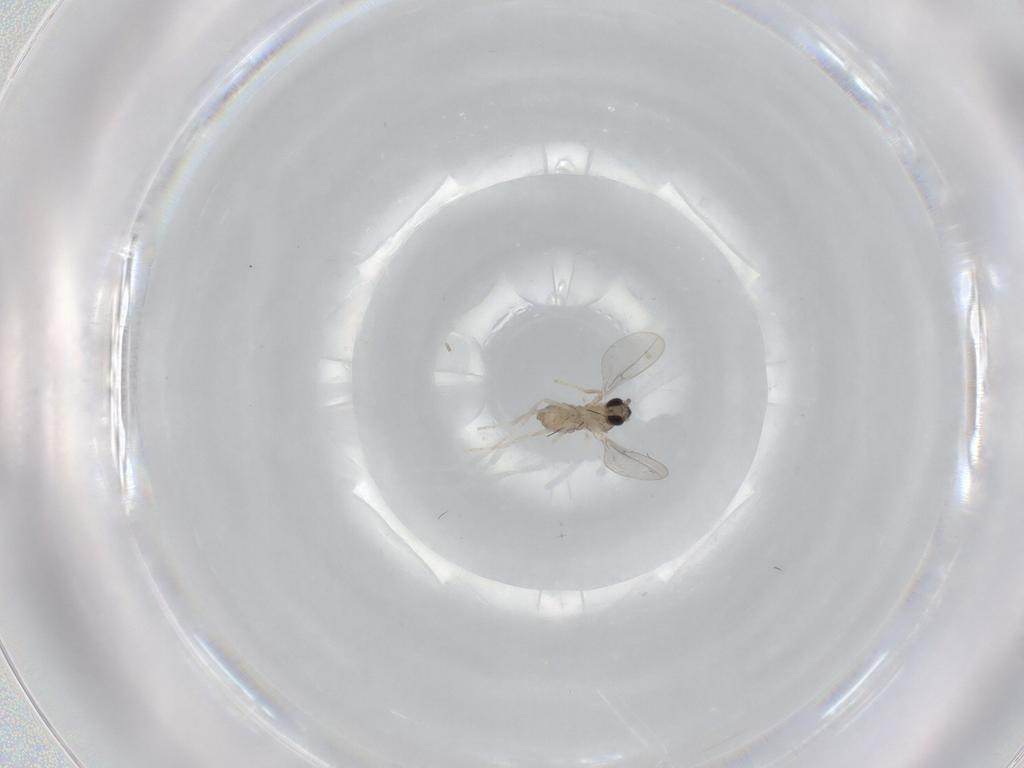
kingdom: Animalia
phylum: Arthropoda
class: Insecta
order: Diptera
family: Cecidomyiidae
